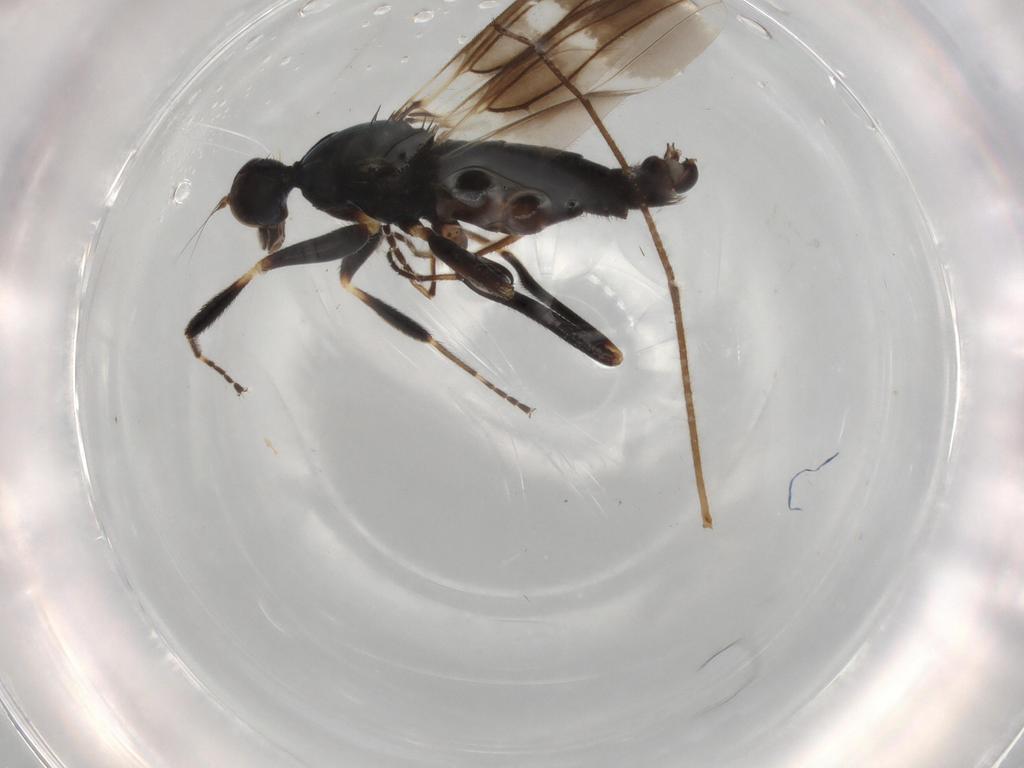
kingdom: Animalia
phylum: Arthropoda
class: Insecta
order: Diptera
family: Hybotidae
